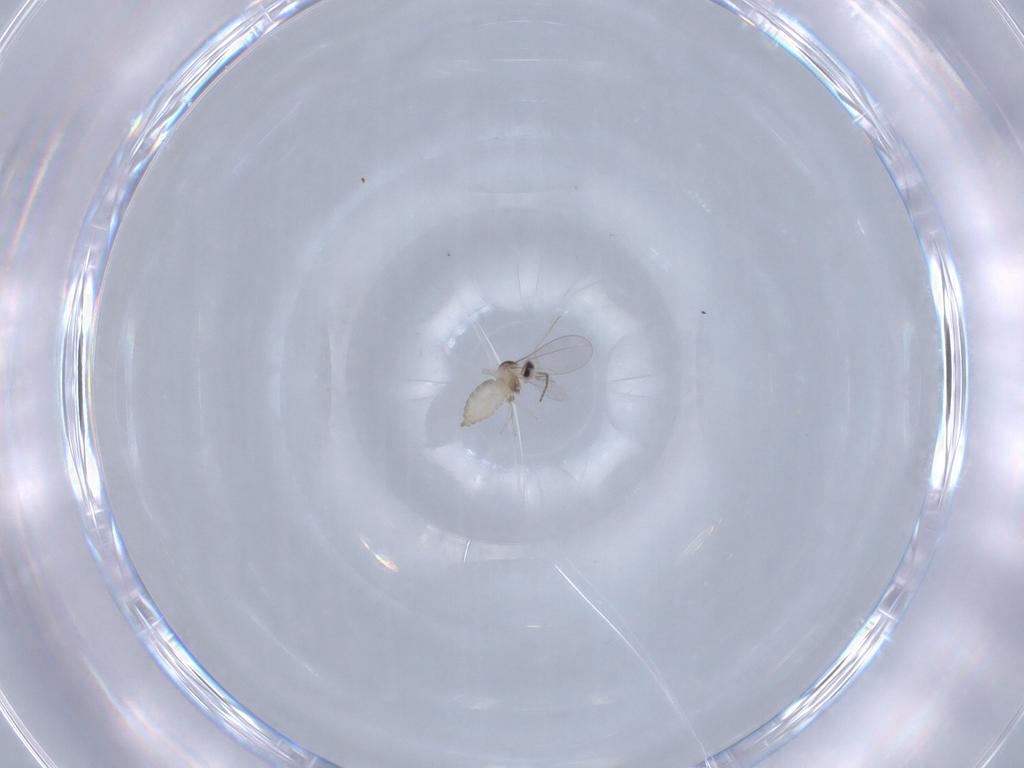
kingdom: Animalia
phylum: Arthropoda
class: Insecta
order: Diptera
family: Cecidomyiidae
